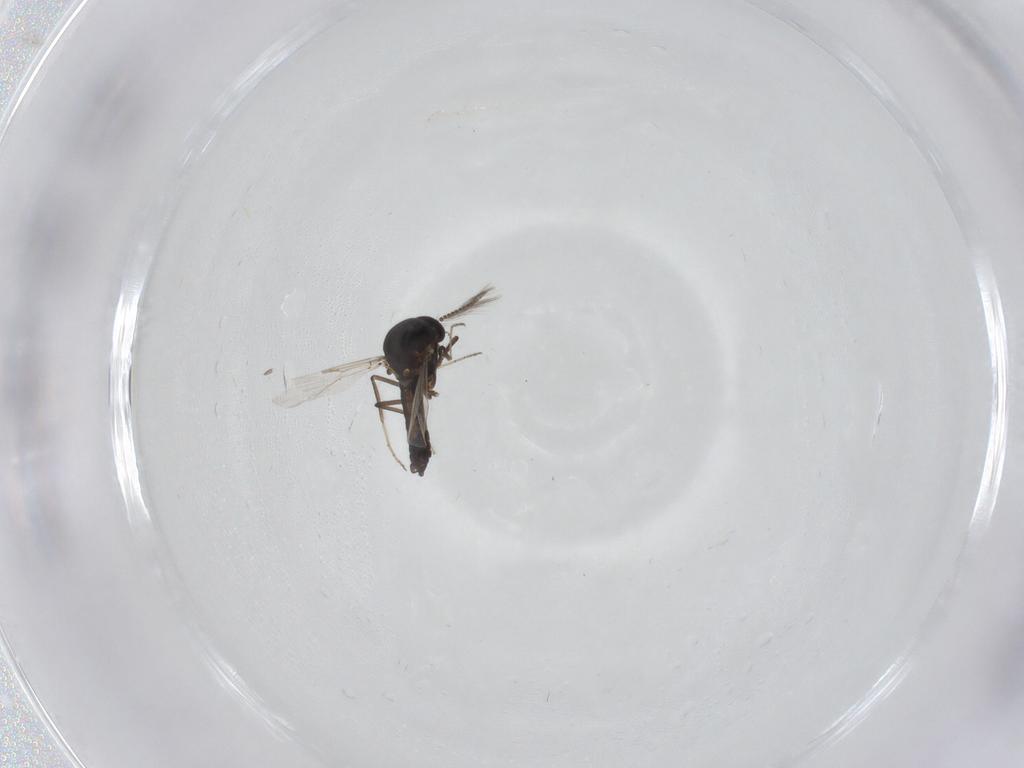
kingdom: Animalia
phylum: Arthropoda
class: Insecta
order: Diptera
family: Ceratopogonidae
